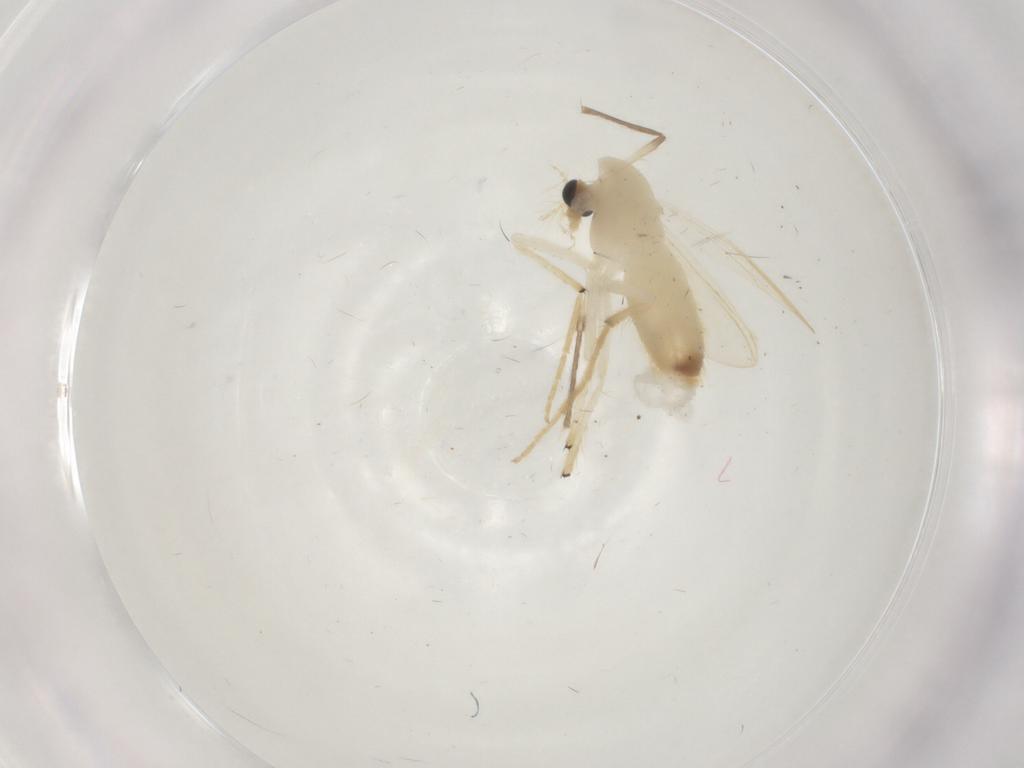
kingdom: Animalia
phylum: Arthropoda
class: Insecta
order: Diptera
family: Chironomidae
